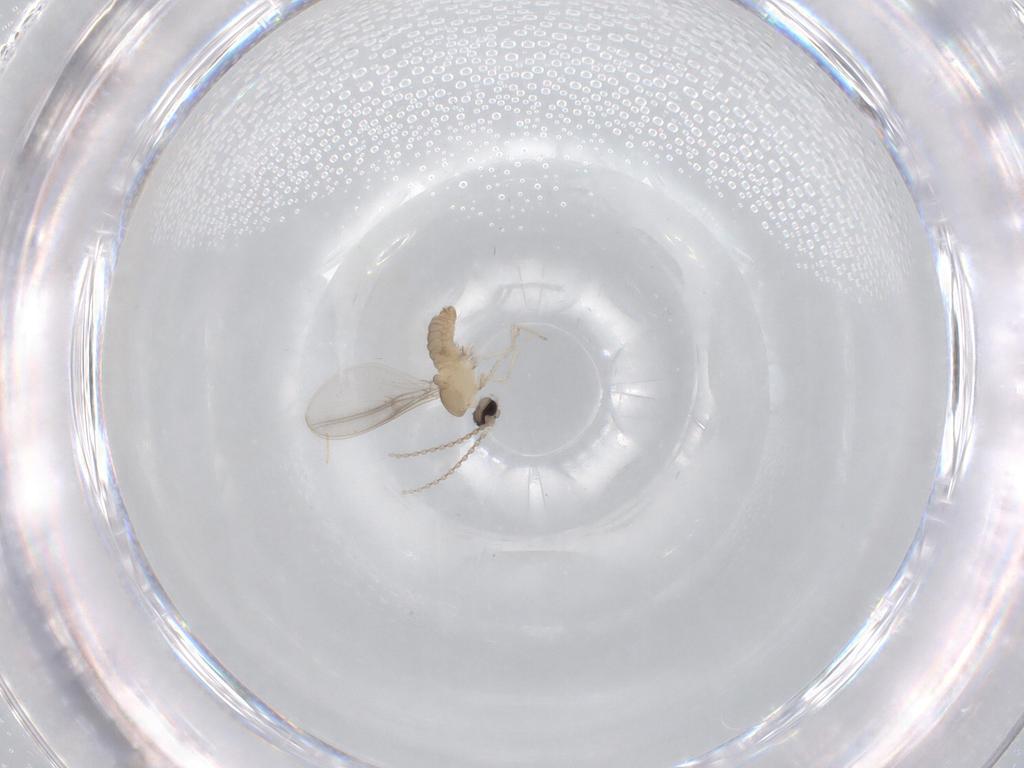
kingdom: Animalia
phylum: Arthropoda
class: Insecta
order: Diptera
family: Cecidomyiidae
